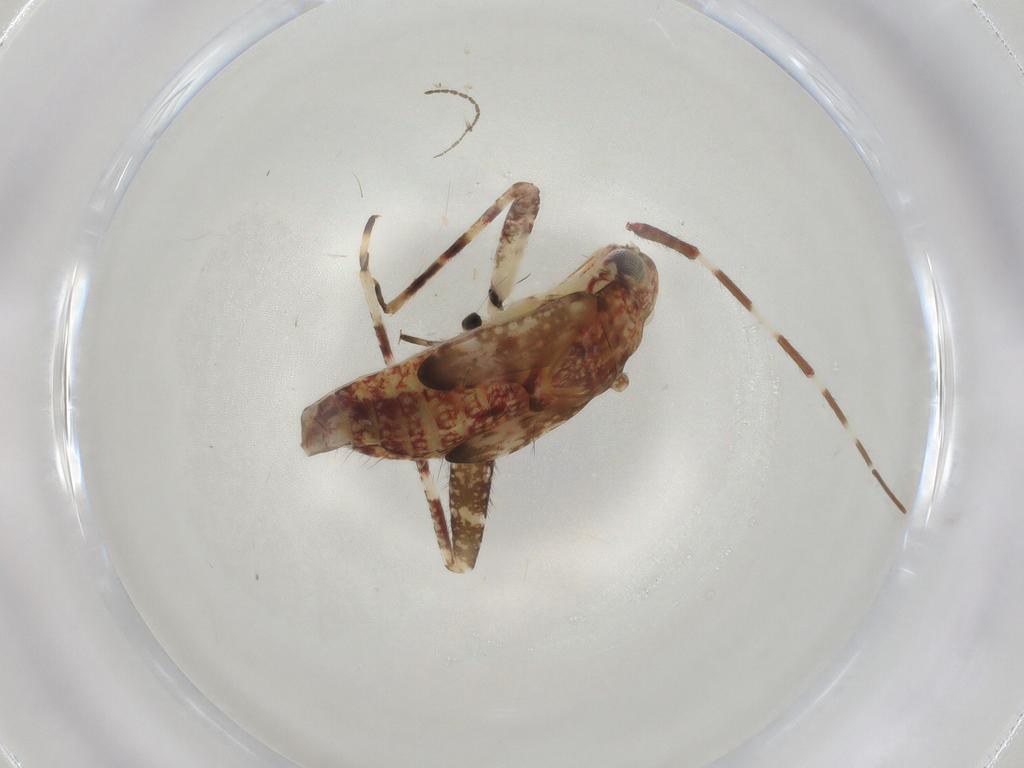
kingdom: Animalia
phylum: Arthropoda
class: Insecta
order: Hemiptera
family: Miridae
